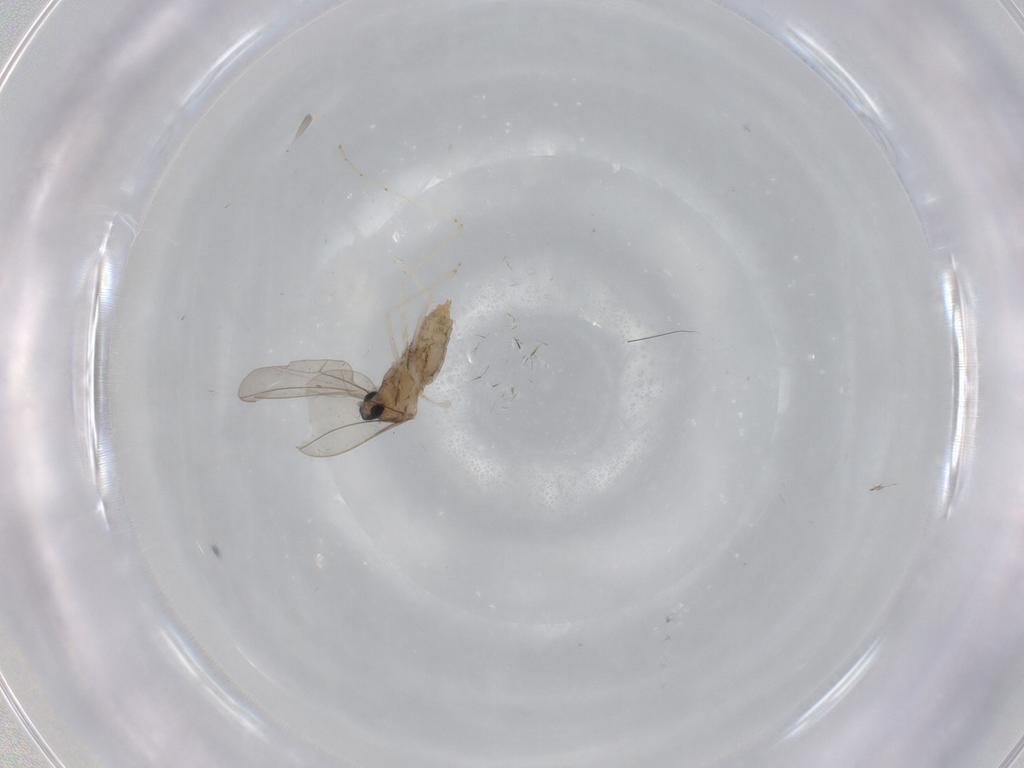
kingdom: Animalia
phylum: Arthropoda
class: Insecta
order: Diptera
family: Cecidomyiidae
